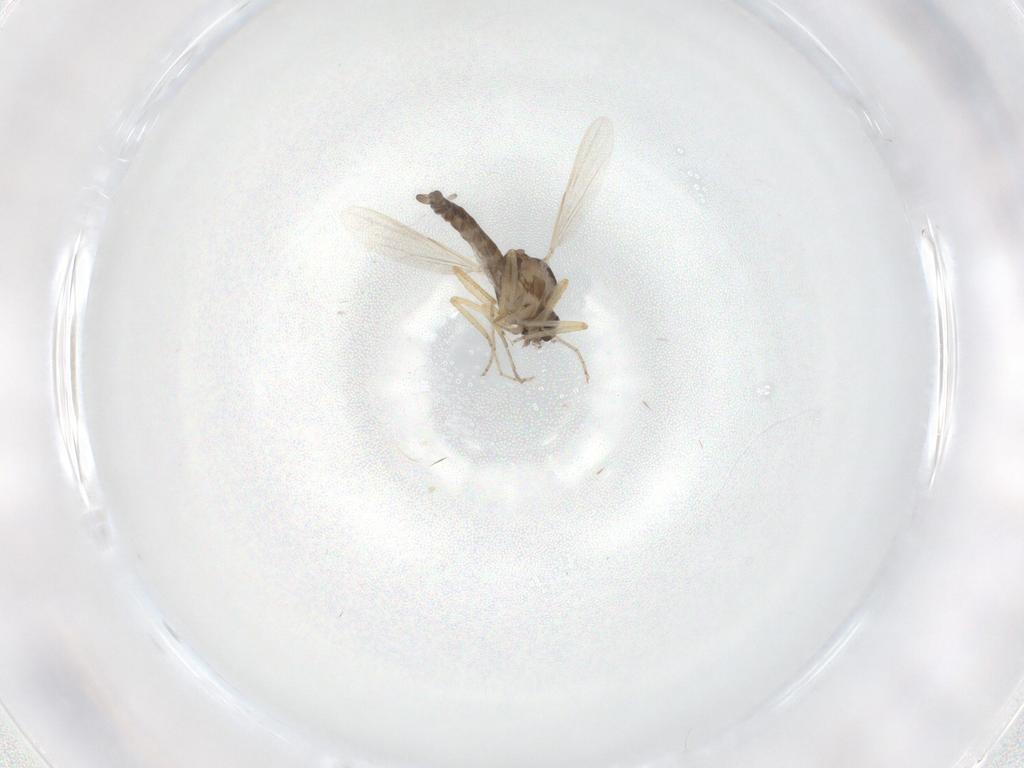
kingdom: Animalia
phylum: Arthropoda
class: Insecta
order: Diptera
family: Ceratopogonidae
